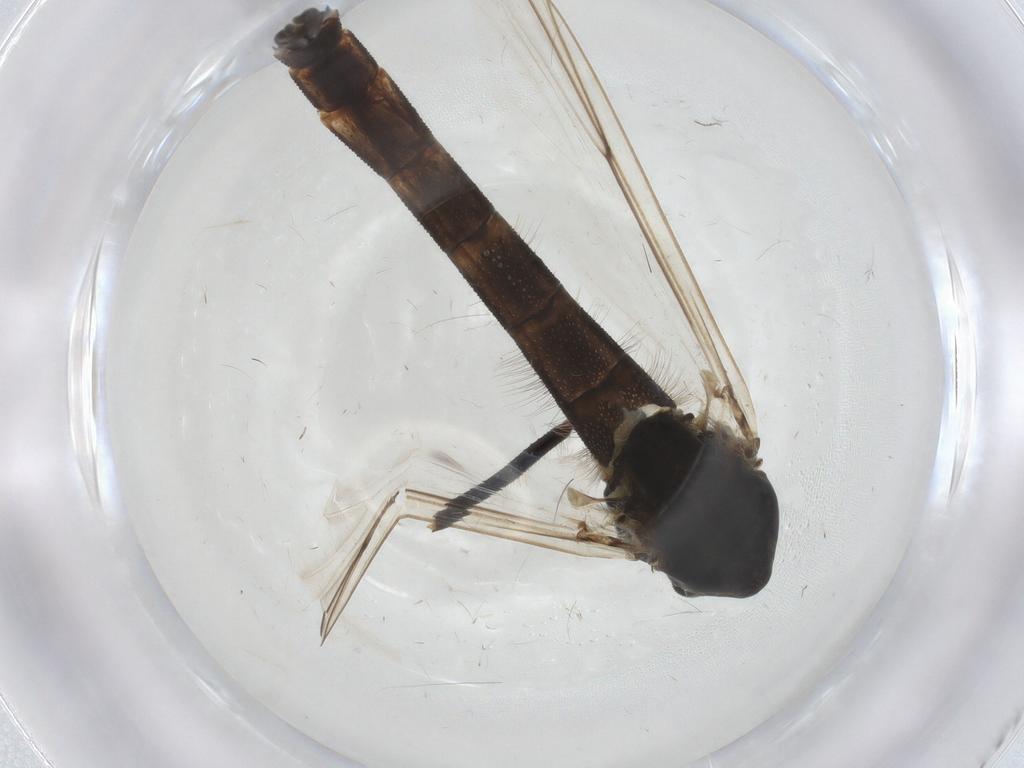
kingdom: Animalia
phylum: Arthropoda
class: Insecta
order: Diptera
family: Chironomidae
